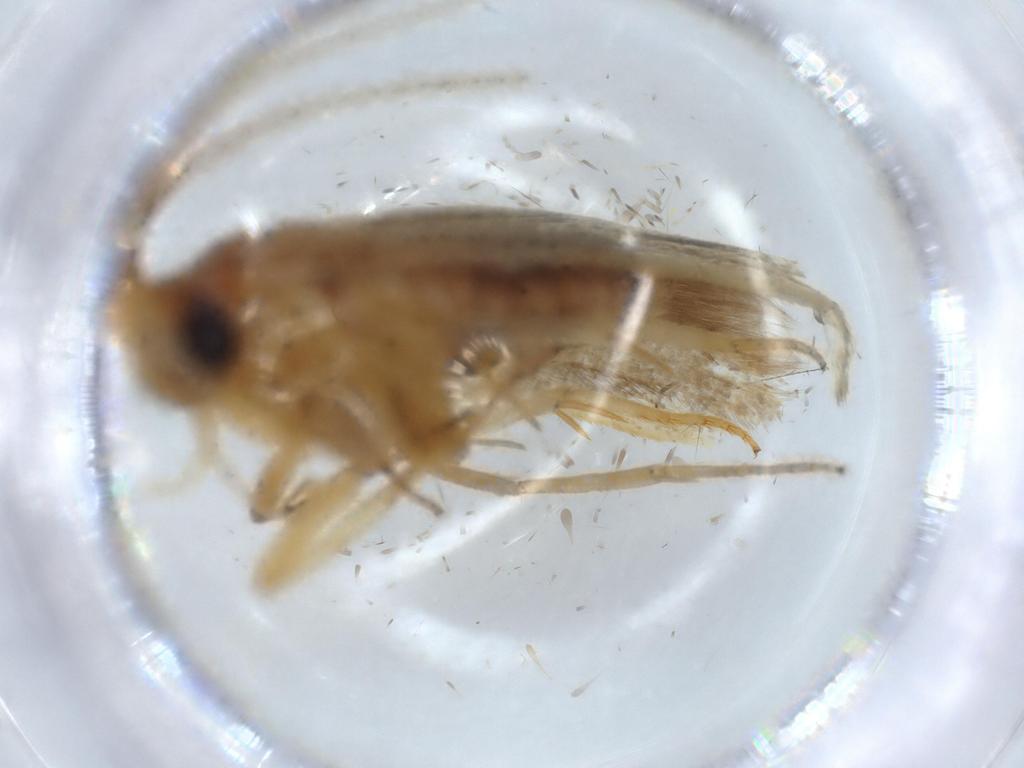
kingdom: Animalia
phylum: Arthropoda
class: Insecta
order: Lepidoptera
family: Blastobasidae
